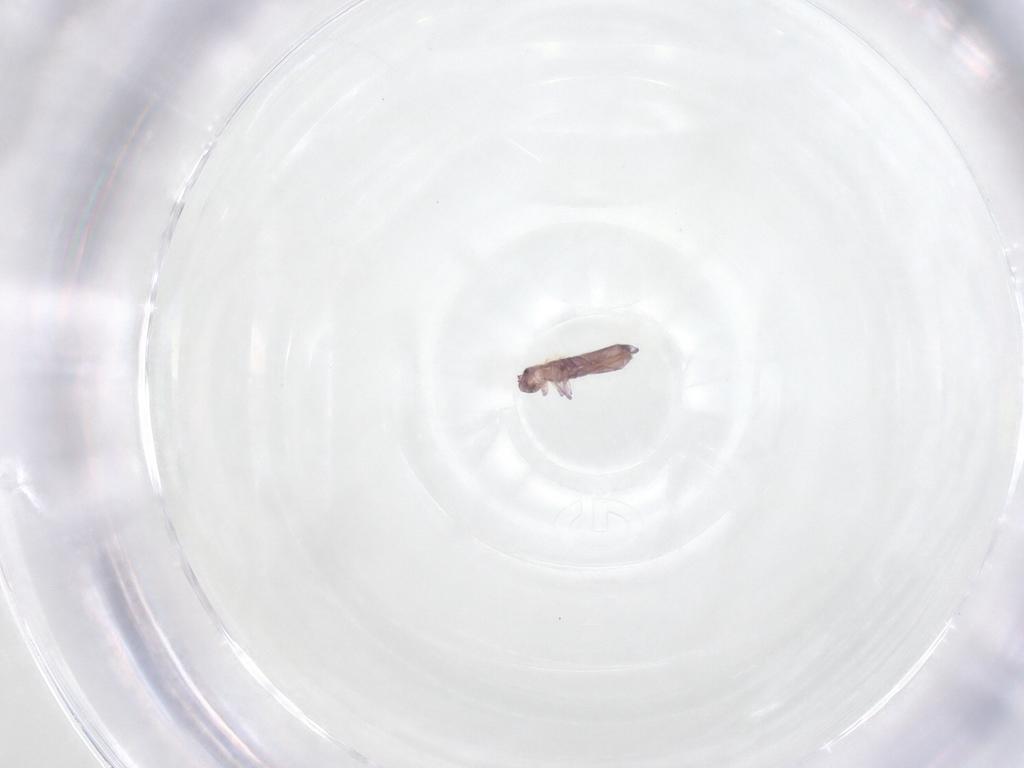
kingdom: Animalia
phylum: Arthropoda
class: Collembola
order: Entomobryomorpha
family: Entomobryidae
